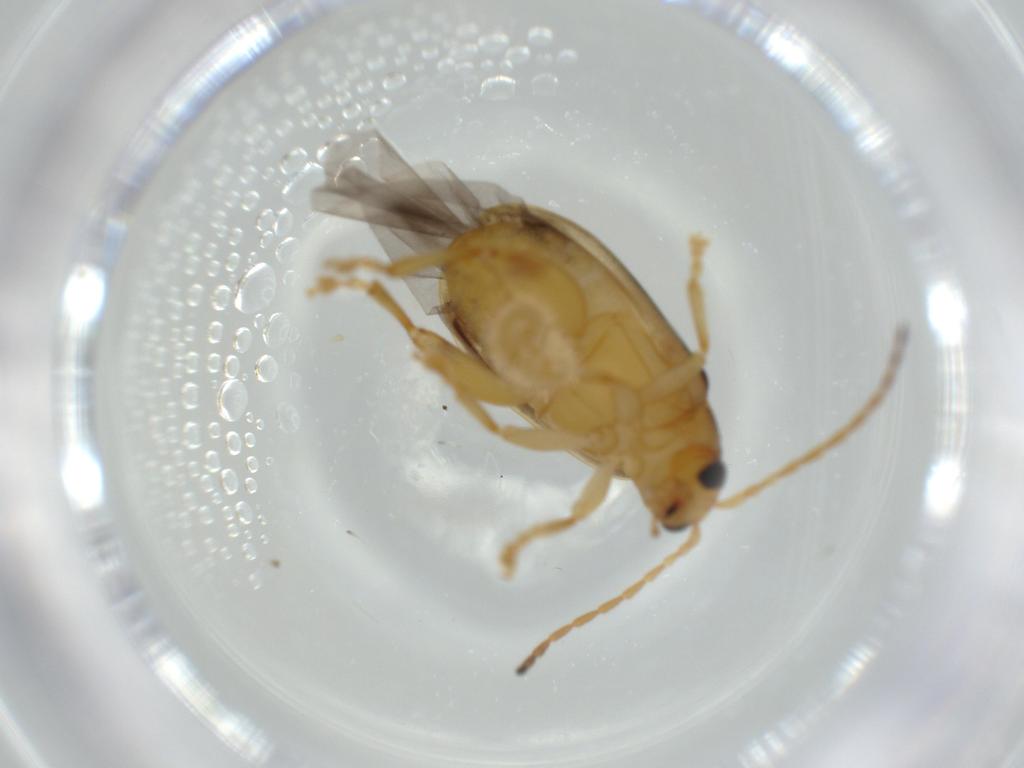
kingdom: Animalia
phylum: Arthropoda
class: Insecta
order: Coleoptera
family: Chrysomelidae
